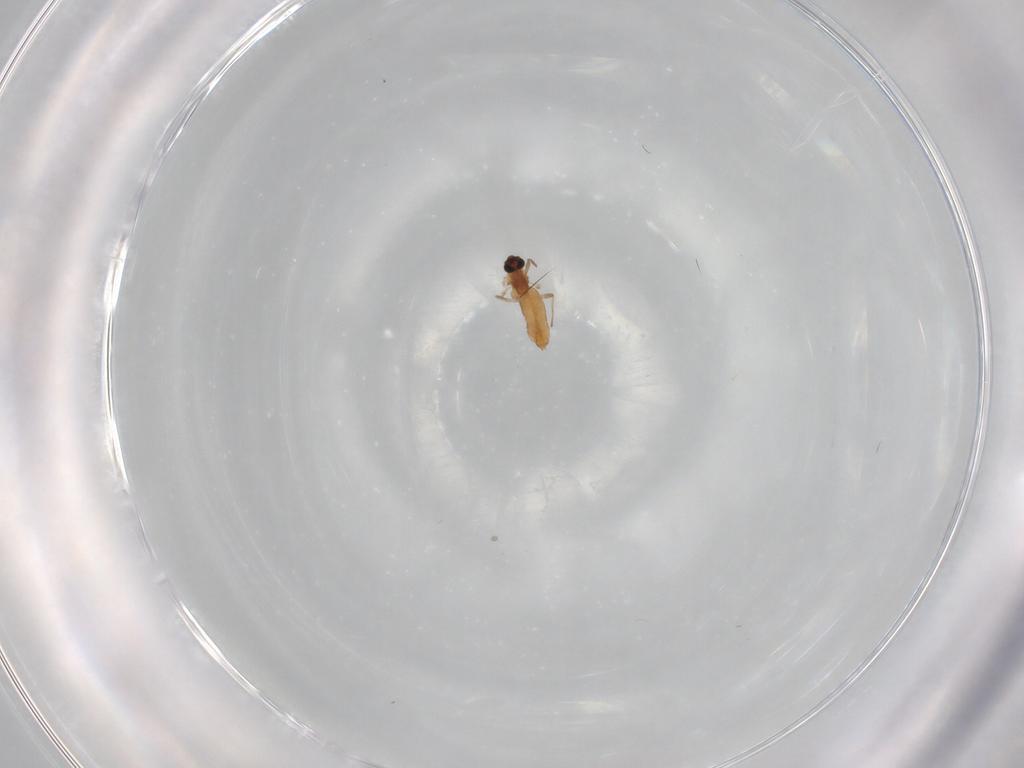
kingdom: Animalia
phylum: Arthropoda
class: Insecta
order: Diptera
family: Chironomidae
